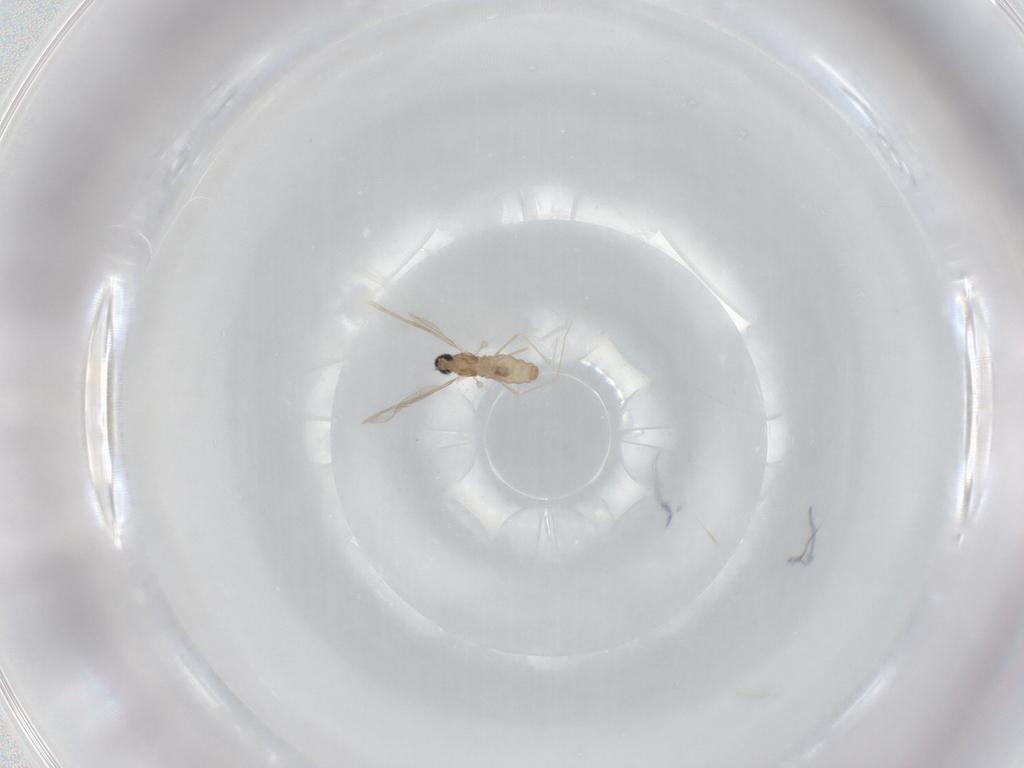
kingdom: Animalia
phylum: Arthropoda
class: Insecta
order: Diptera
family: Cecidomyiidae
